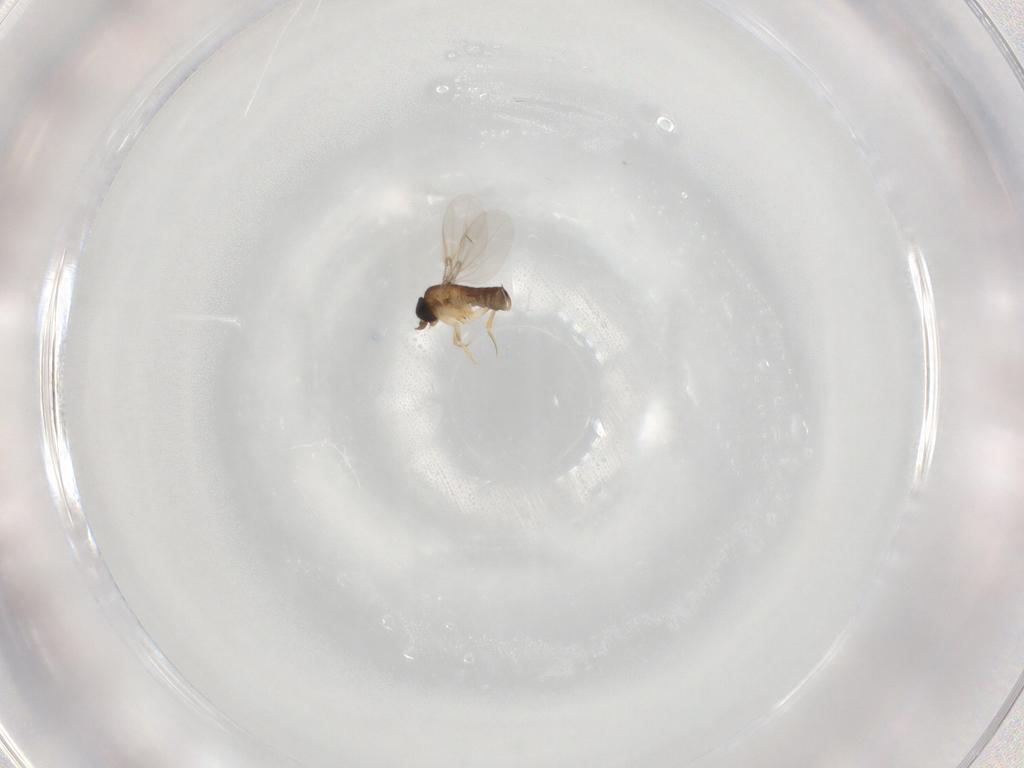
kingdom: Animalia
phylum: Arthropoda
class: Insecta
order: Diptera
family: Phoridae
